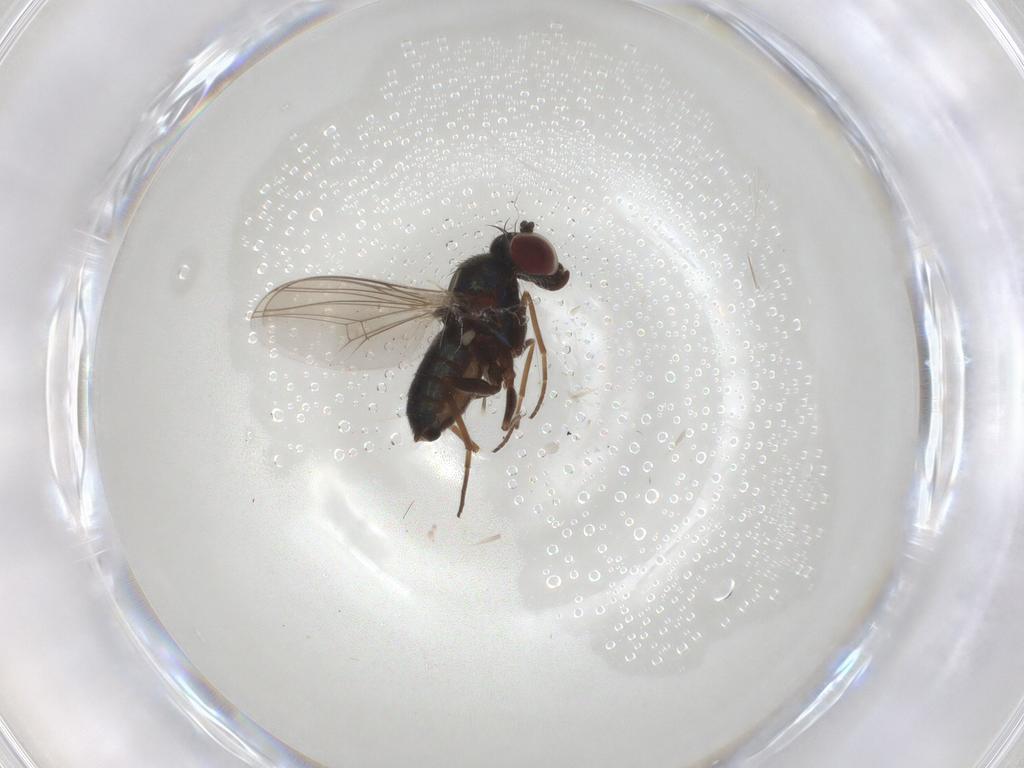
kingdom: Animalia
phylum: Arthropoda
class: Insecta
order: Diptera
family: Dolichopodidae
